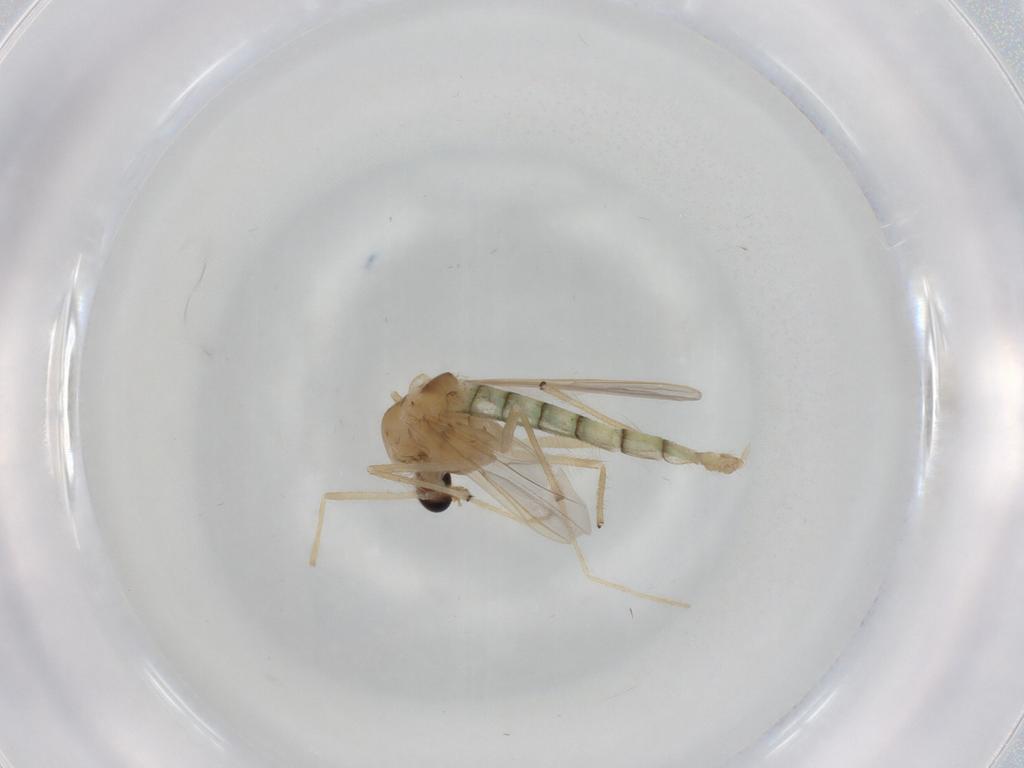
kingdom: Animalia
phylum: Arthropoda
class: Insecta
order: Diptera
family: Chironomidae
